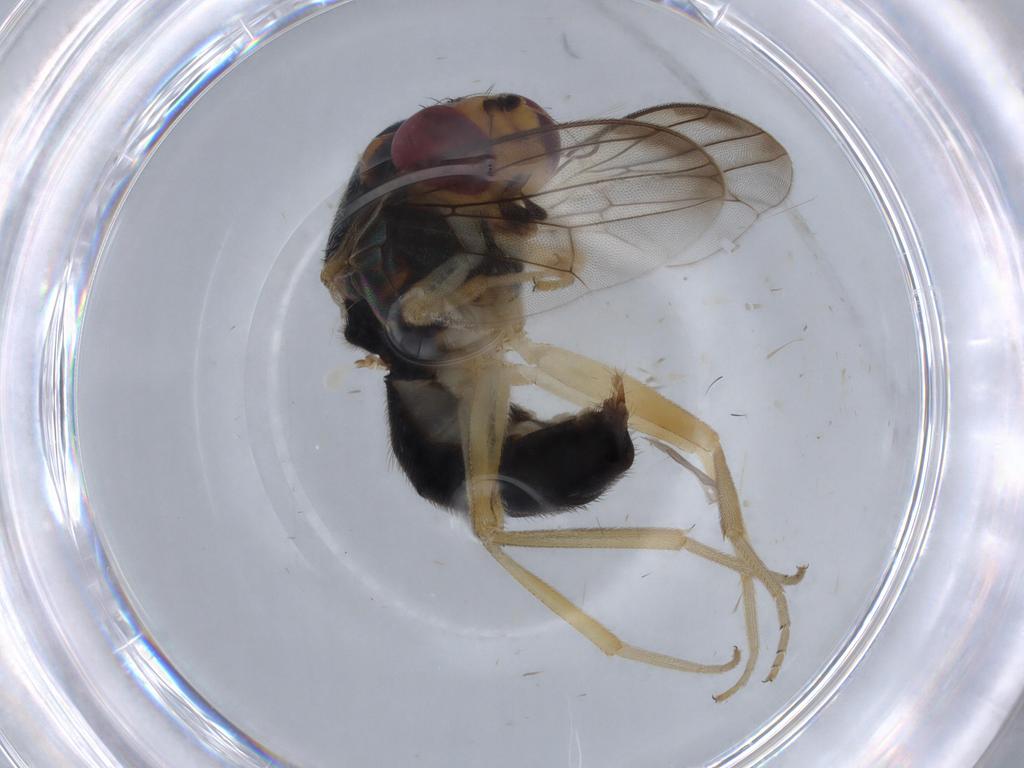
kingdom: Animalia
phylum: Arthropoda
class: Insecta
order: Diptera
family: Psilidae
